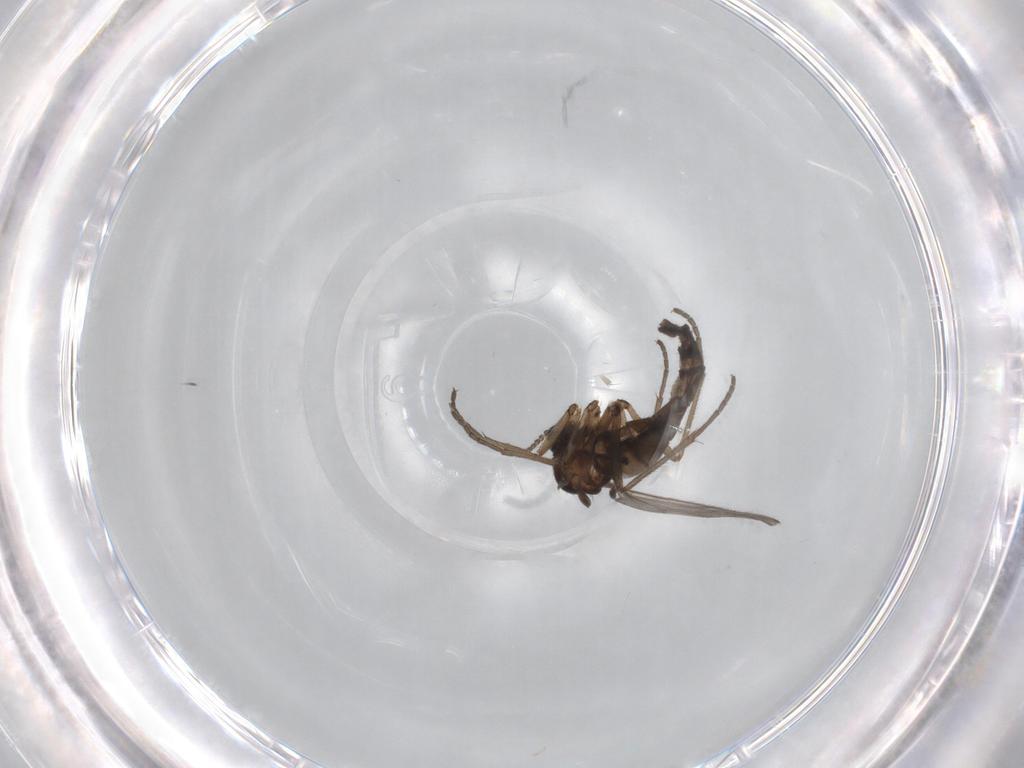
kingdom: Animalia
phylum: Arthropoda
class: Insecta
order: Diptera
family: Sciaridae
